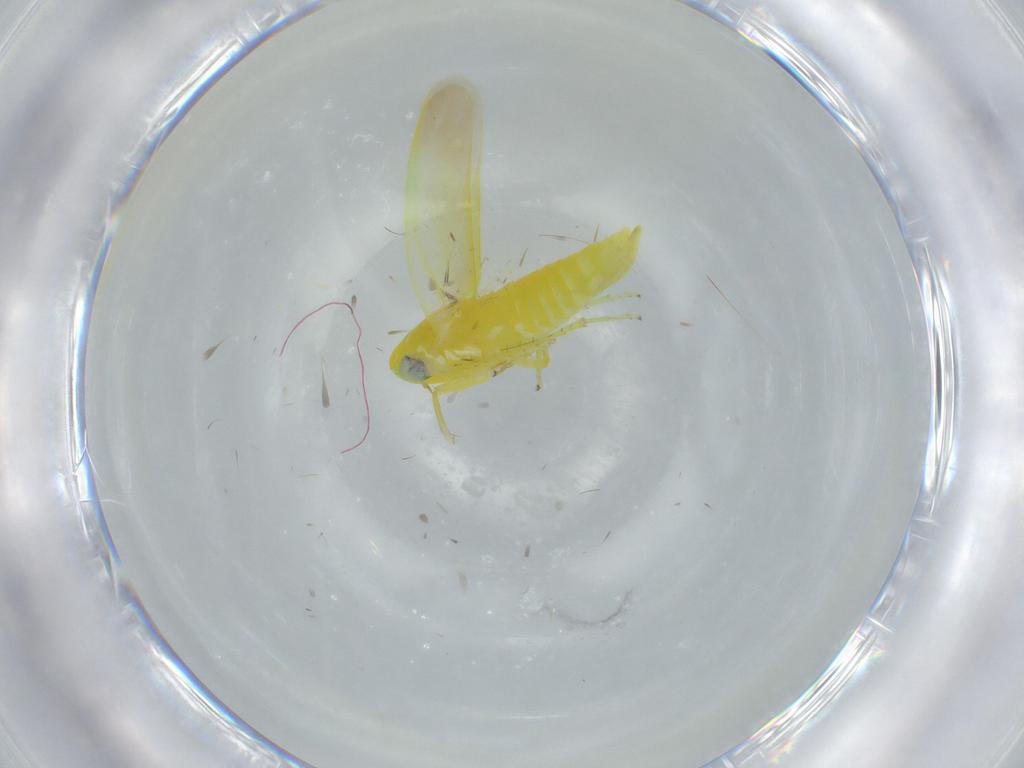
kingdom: Animalia
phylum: Arthropoda
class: Insecta
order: Hemiptera
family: Cicadellidae
